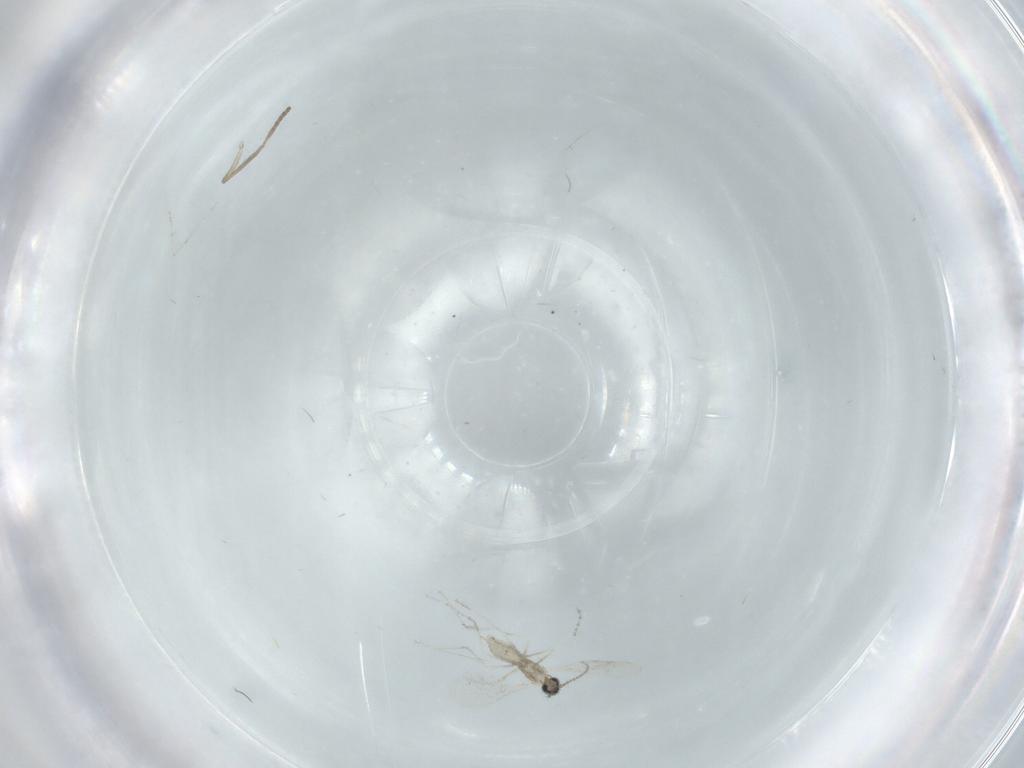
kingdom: Animalia
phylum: Arthropoda
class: Insecta
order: Diptera
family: Cecidomyiidae
